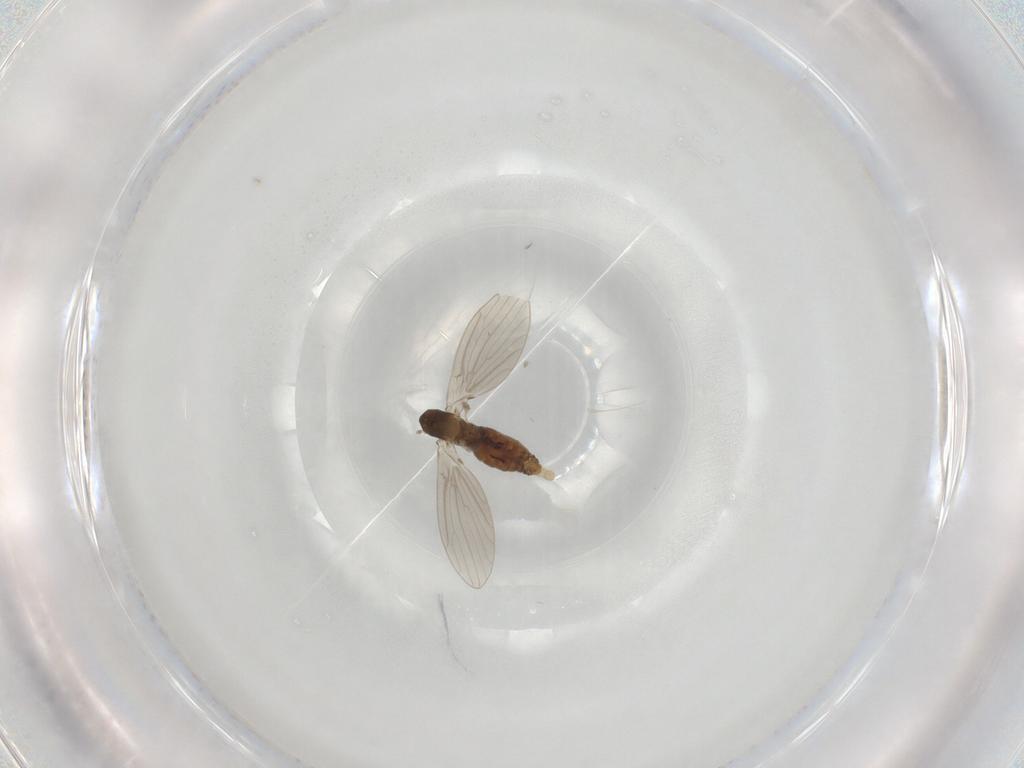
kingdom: Animalia
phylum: Arthropoda
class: Insecta
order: Diptera
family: Psychodidae
